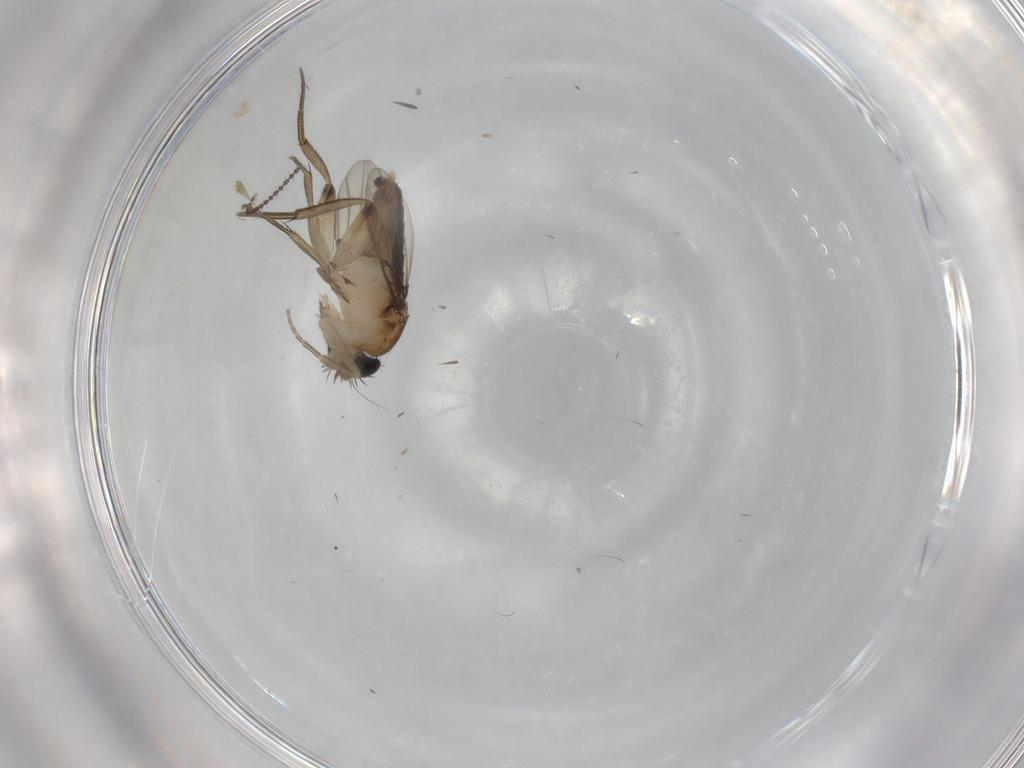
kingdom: Animalia
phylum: Arthropoda
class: Insecta
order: Diptera
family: Phoridae
